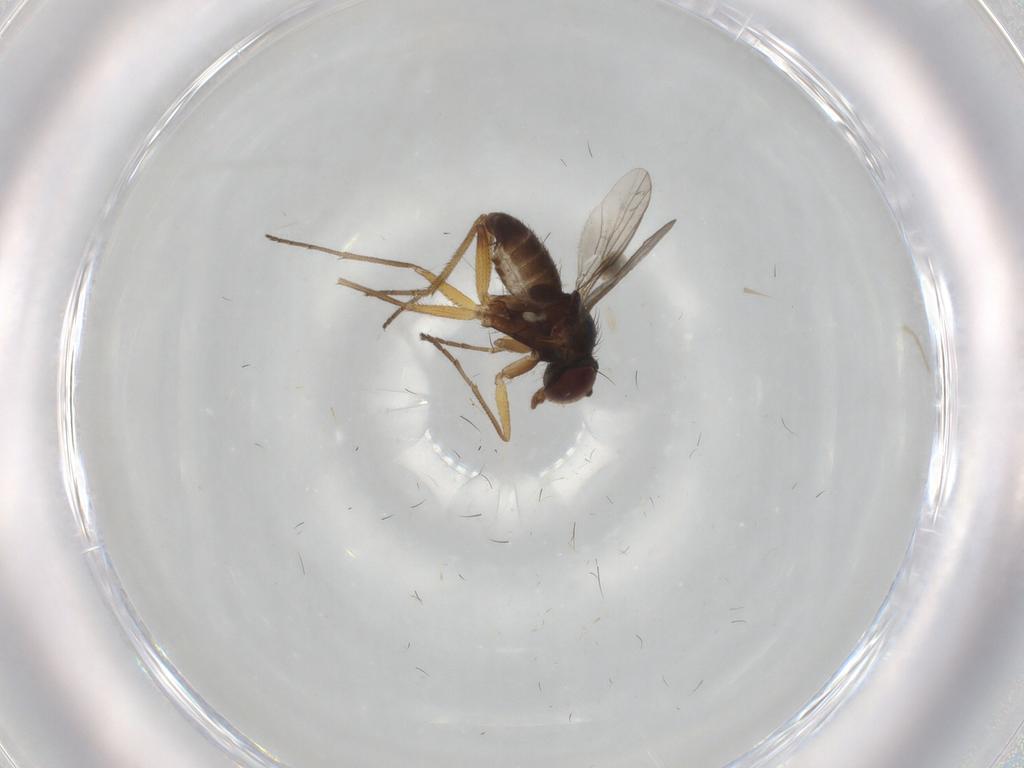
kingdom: Animalia
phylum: Arthropoda
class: Insecta
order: Diptera
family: Dolichopodidae
